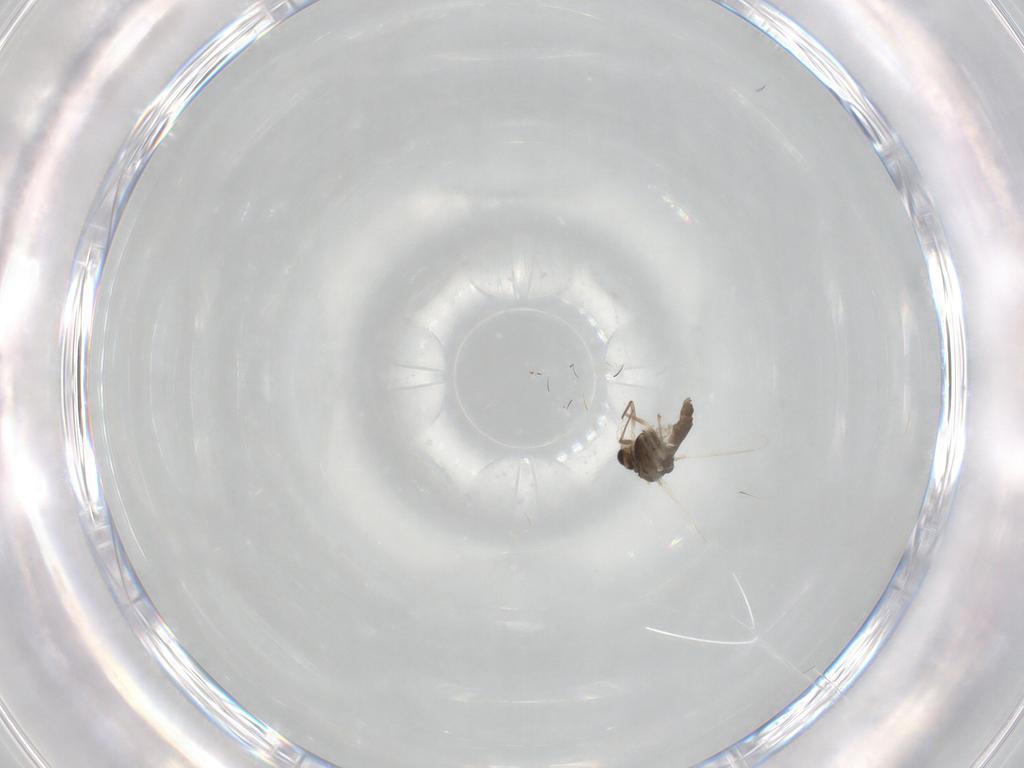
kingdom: Animalia
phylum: Arthropoda
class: Insecta
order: Diptera
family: Chironomidae
